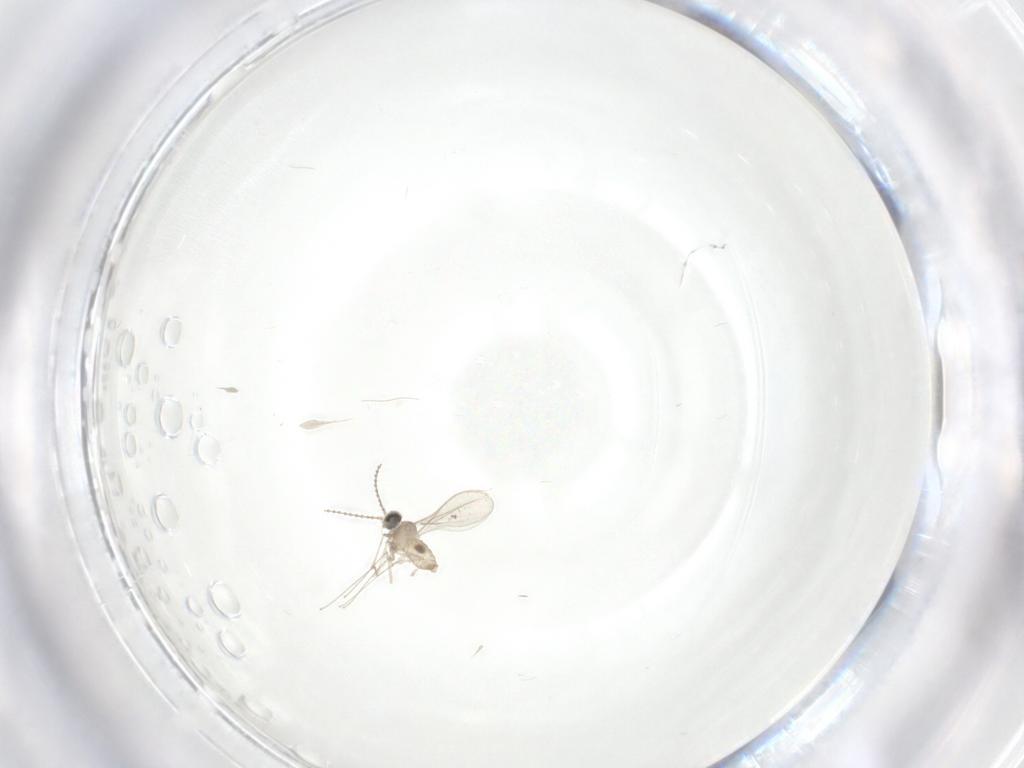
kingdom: Animalia
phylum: Arthropoda
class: Insecta
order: Diptera
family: Cecidomyiidae
